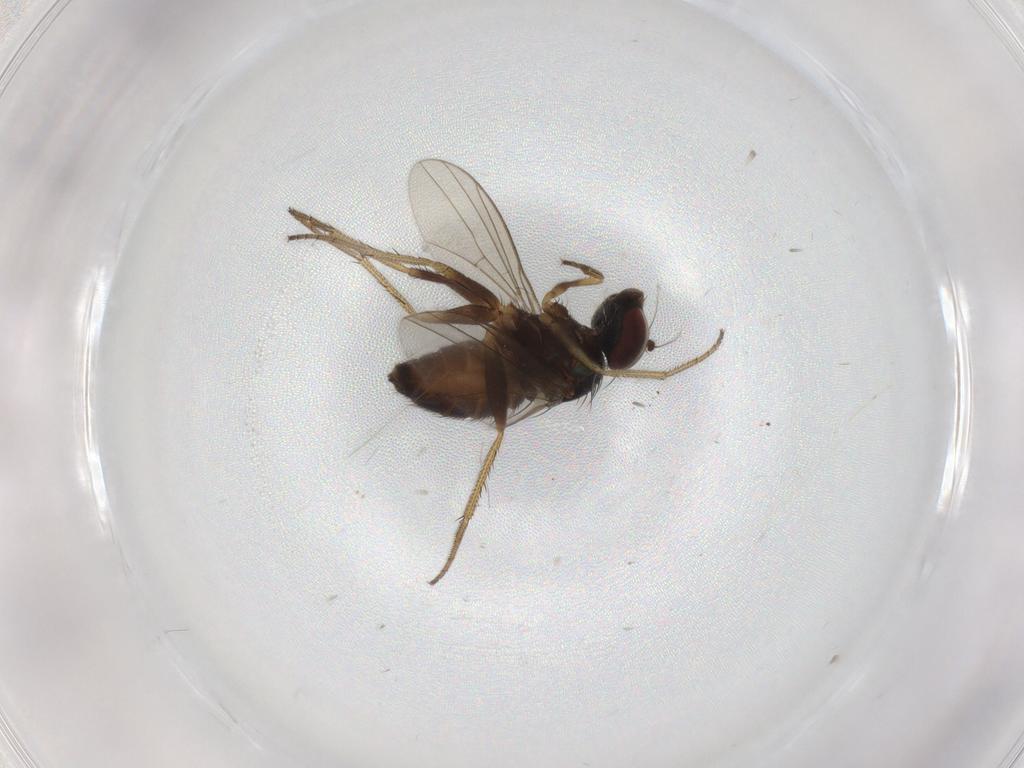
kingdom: Animalia
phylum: Arthropoda
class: Insecta
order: Diptera
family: Psychodidae
